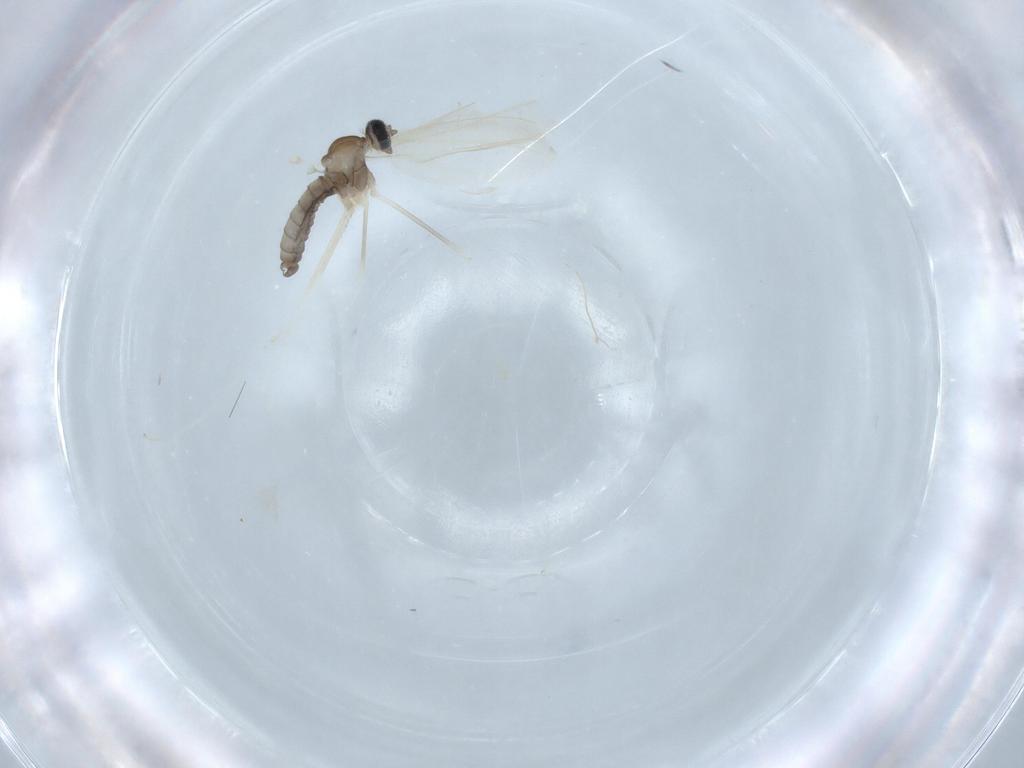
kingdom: Animalia
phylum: Arthropoda
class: Insecta
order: Diptera
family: Cecidomyiidae
